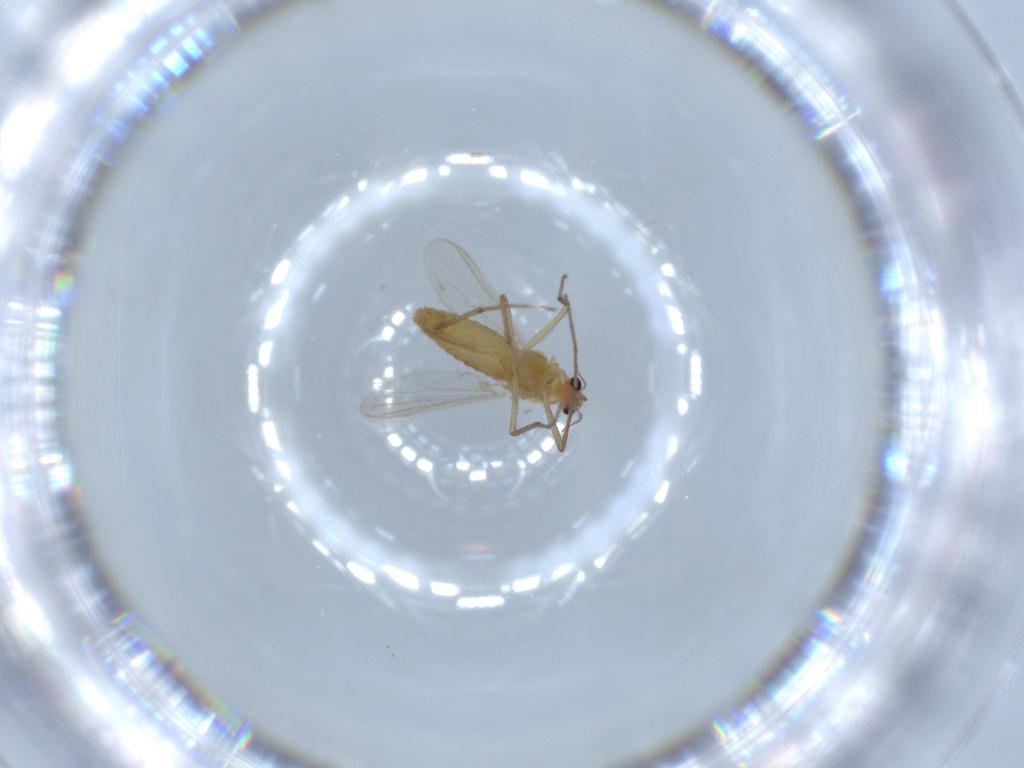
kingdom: Animalia
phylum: Arthropoda
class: Insecta
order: Diptera
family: Chironomidae
